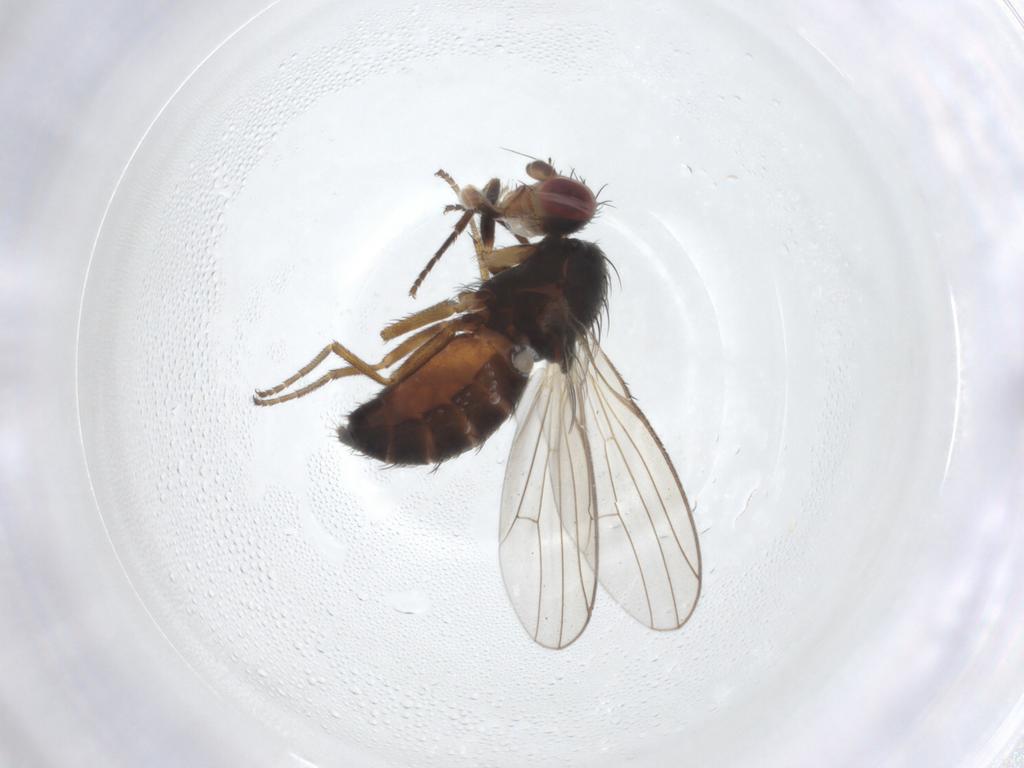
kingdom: Animalia
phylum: Arthropoda
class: Insecta
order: Diptera
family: Heleomyzidae
